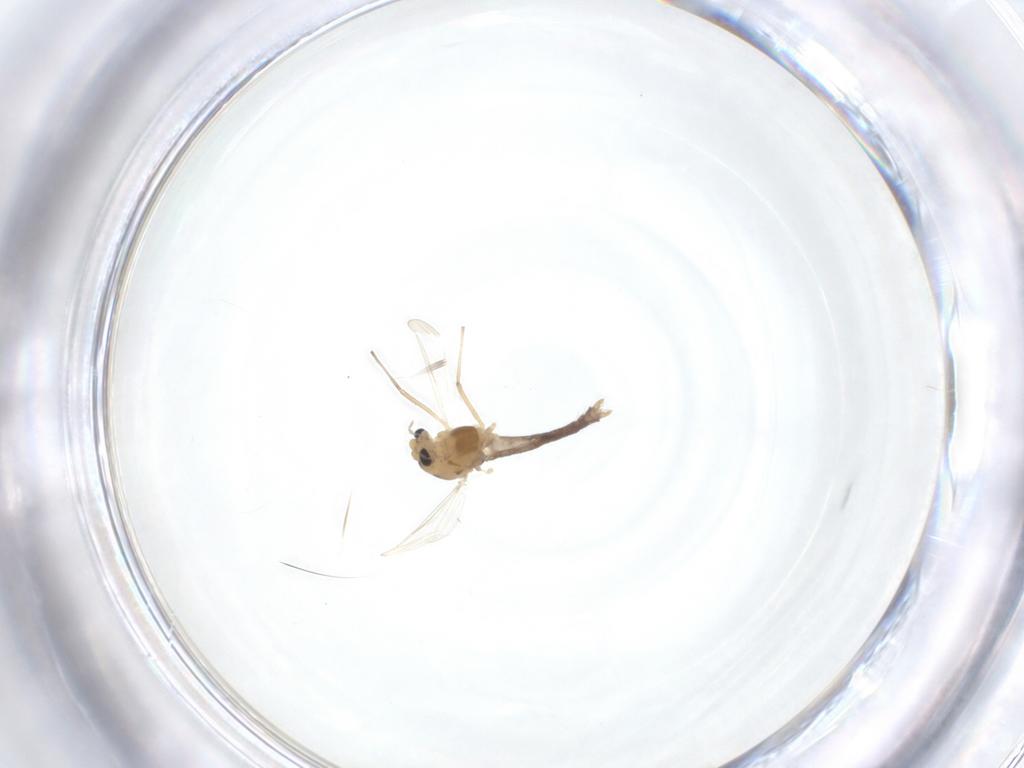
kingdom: Animalia
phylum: Arthropoda
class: Insecta
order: Diptera
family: Chironomidae
